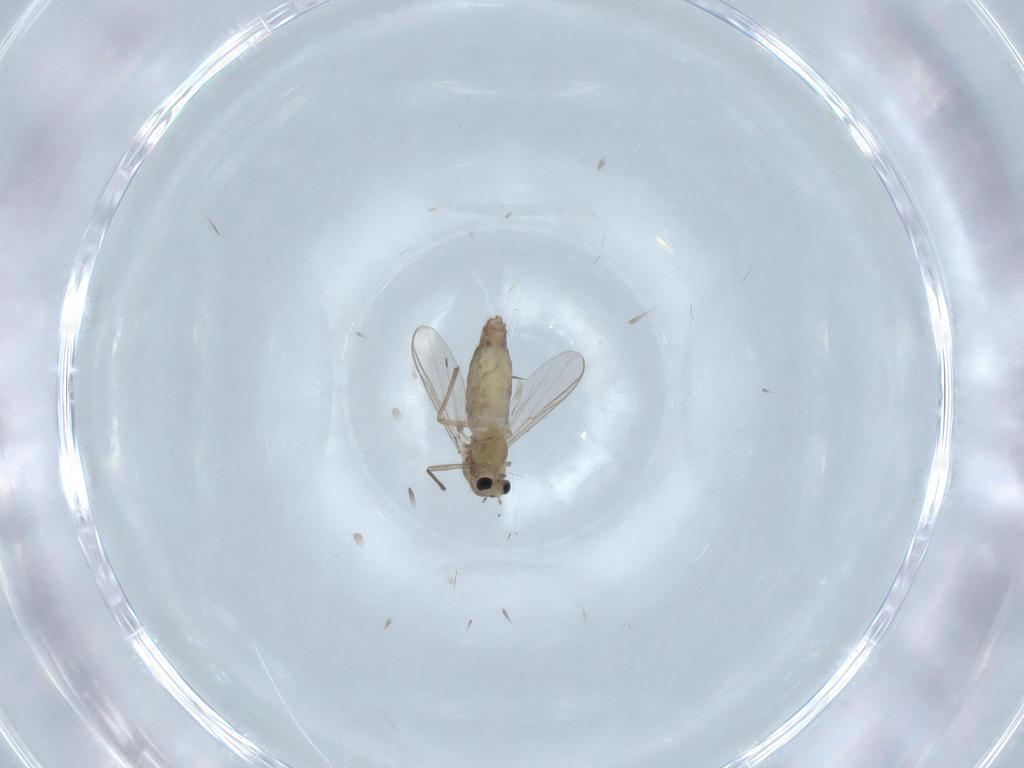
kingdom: Animalia
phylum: Arthropoda
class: Insecta
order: Diptera
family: Chironomidae
